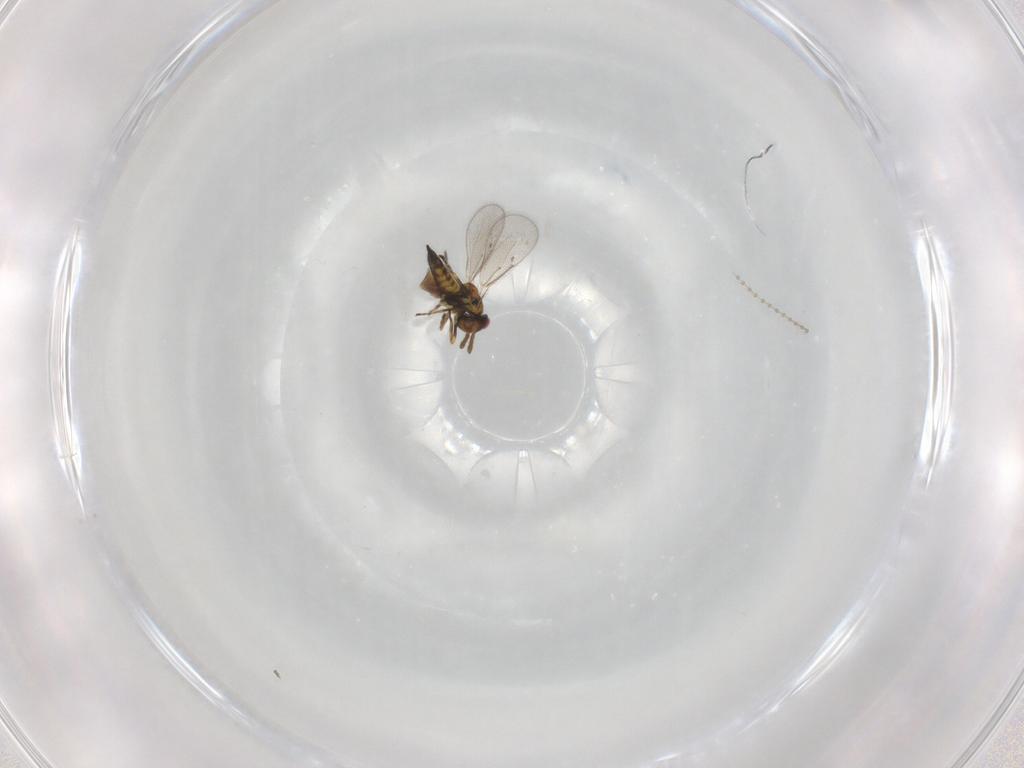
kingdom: Animalia
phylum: Arthropoda
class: Insecta
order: Hymenoptera
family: Eulophidae
